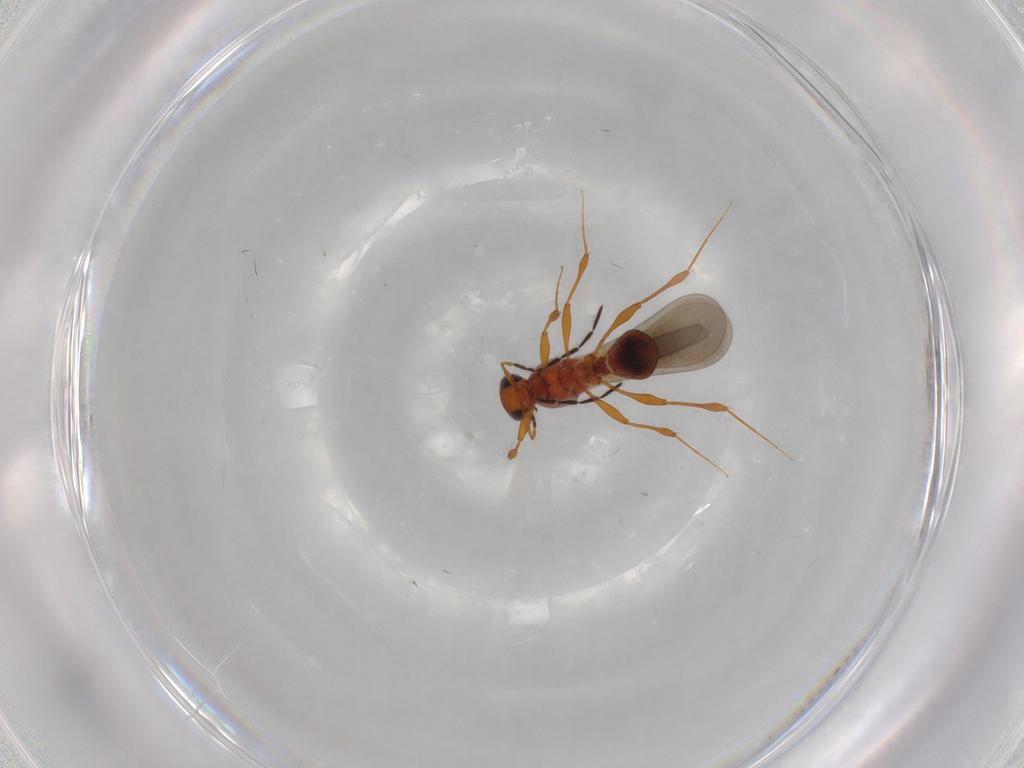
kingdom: Animalia
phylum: Arthropoda
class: Insecta
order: Hymenoptera
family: Platygastridae
